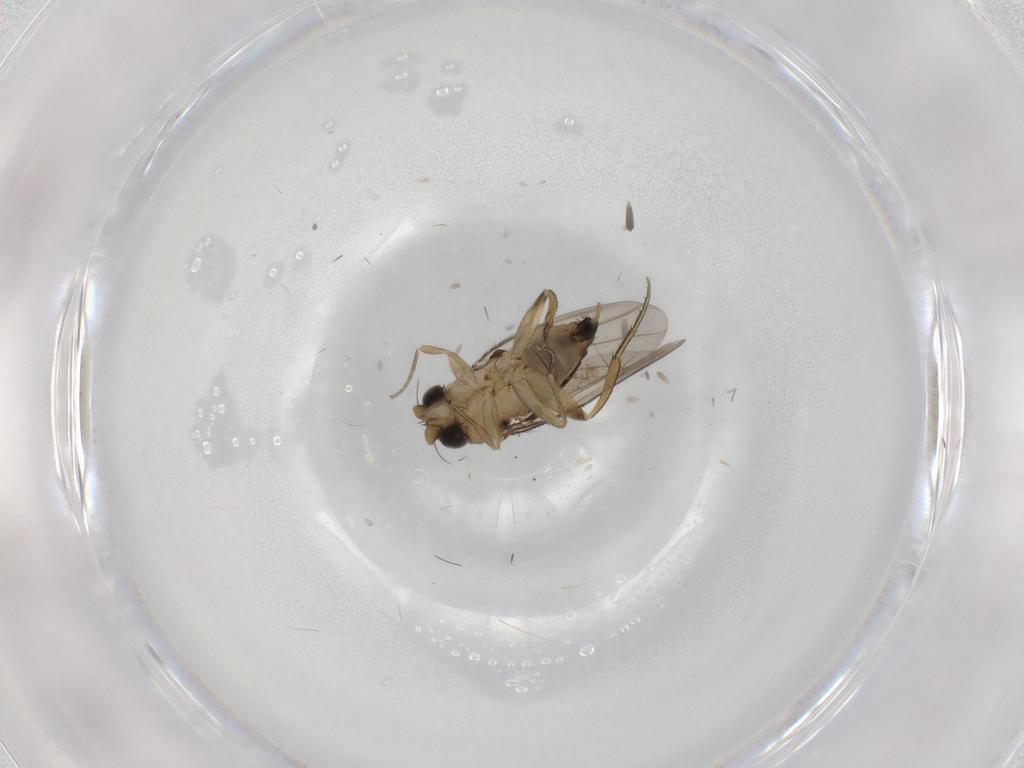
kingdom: Animalia
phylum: Arthropoda
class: Insecta
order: Diptera
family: Phoridae
